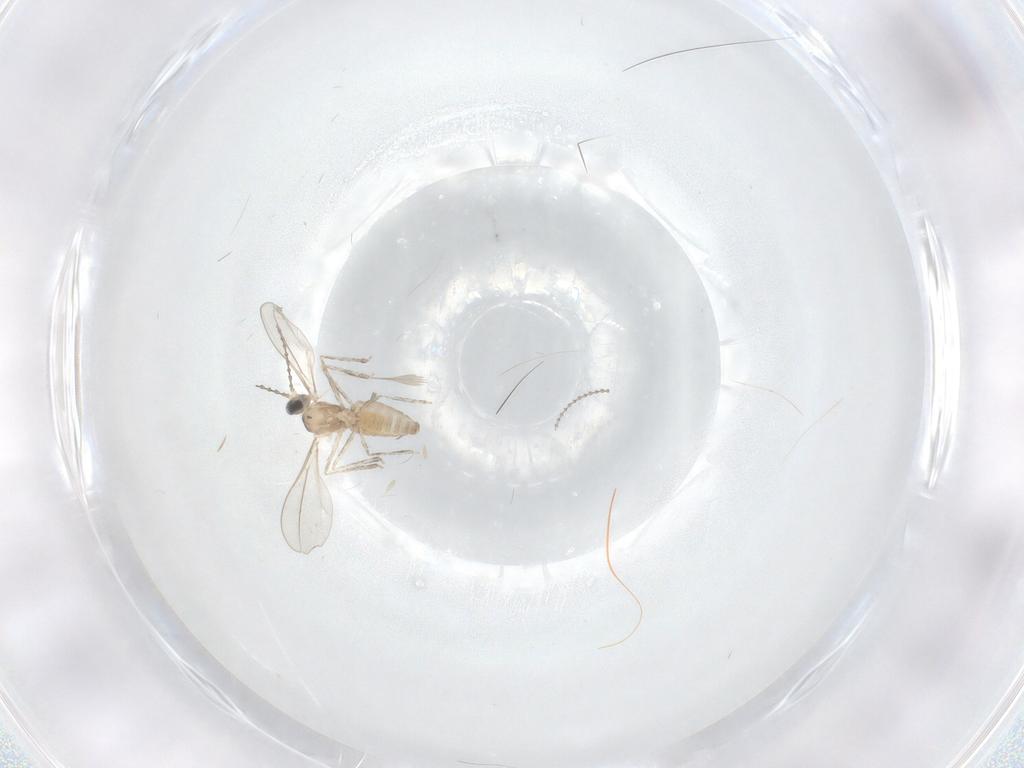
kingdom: Animalia
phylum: Arthropoda
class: Insecta
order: Diptera
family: Cecidomyiidae
